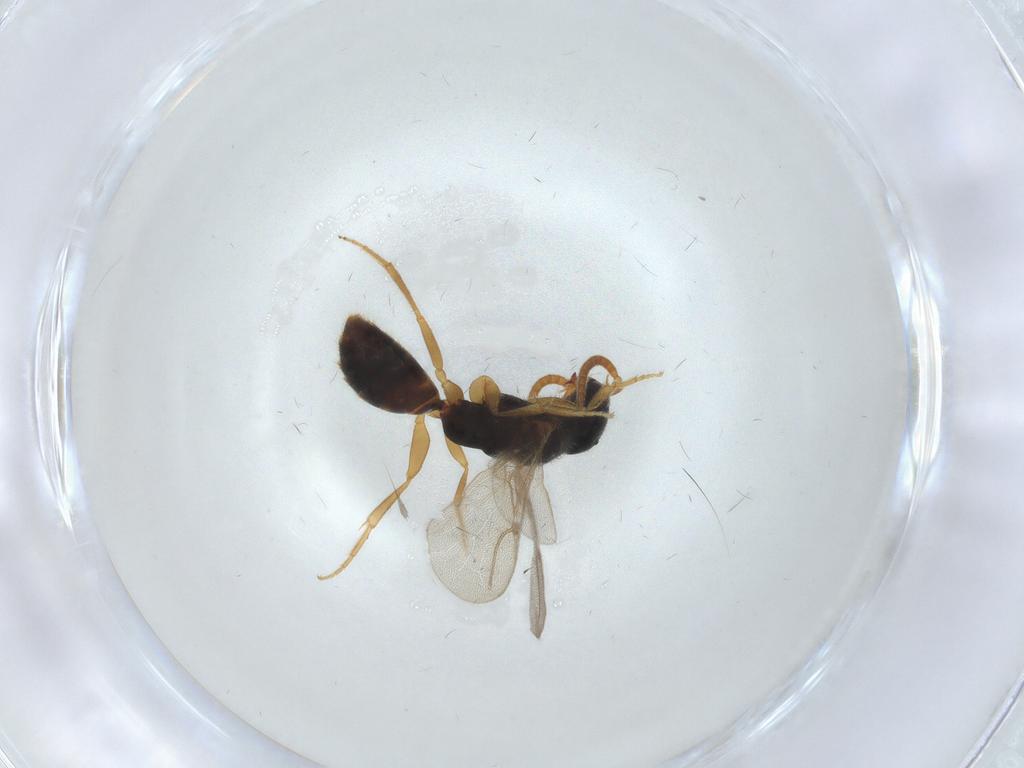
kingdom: Animalia
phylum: Arthropoda
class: Insecta
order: Hymenoptera
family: Bethylidae
